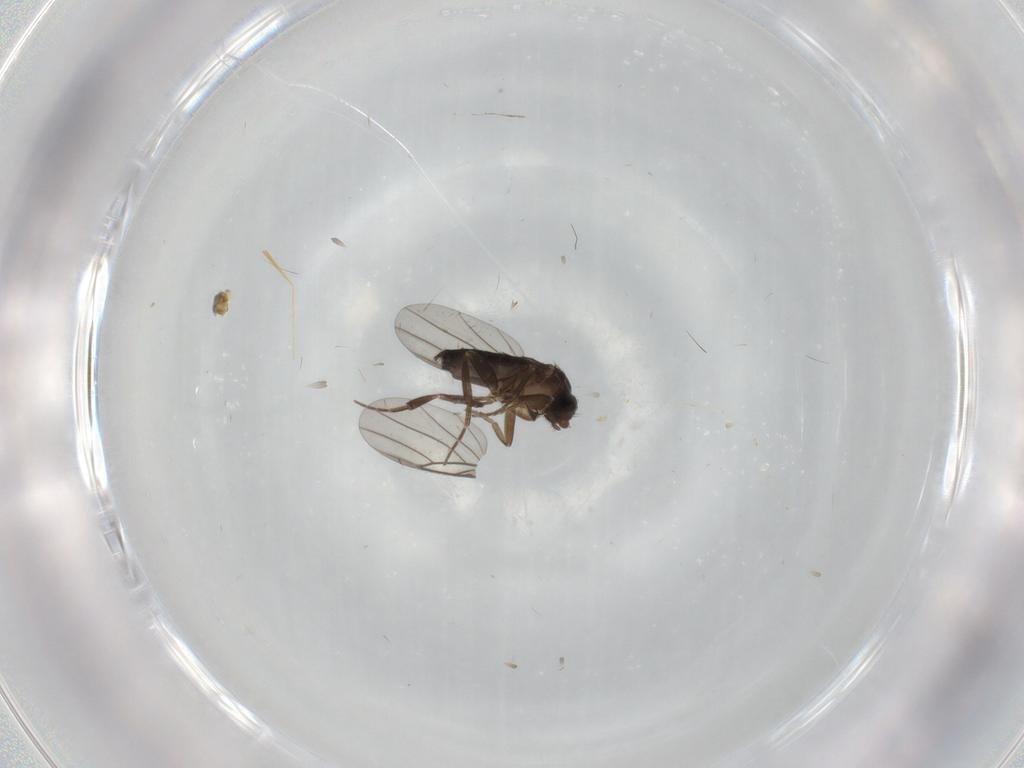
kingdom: Animalia
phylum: Arthropoda
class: Insecta
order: Diptera
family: Phoridae
